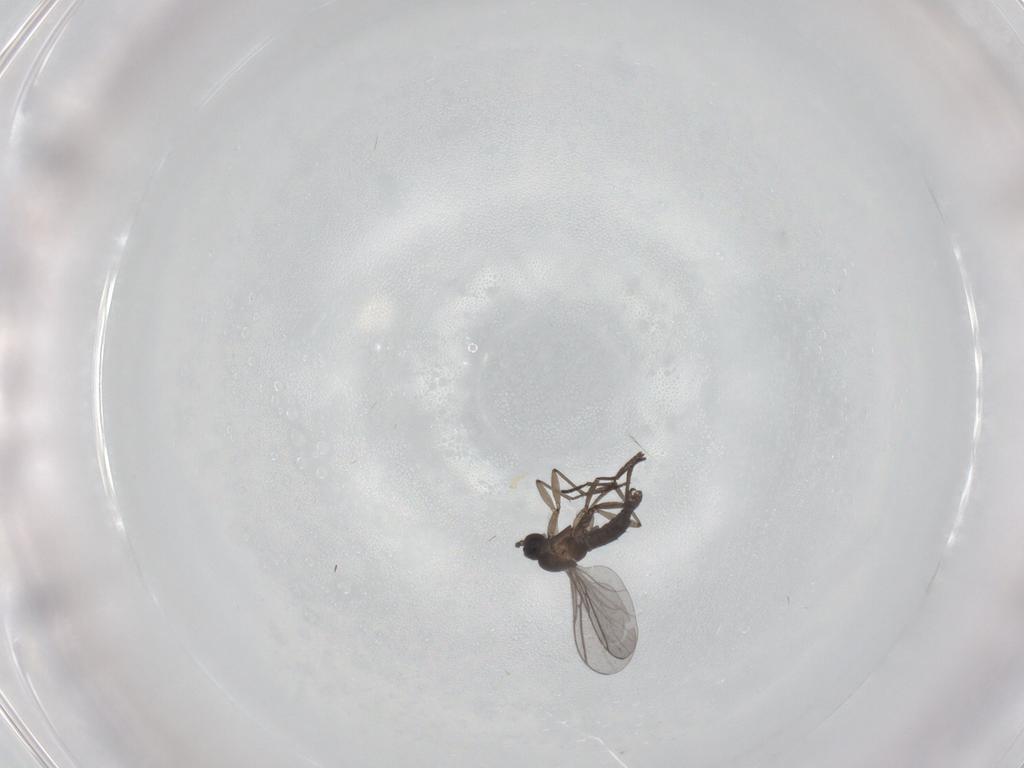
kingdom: Animalia
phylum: Arthropoda
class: Insecta
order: Diptera
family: Sciaridae
